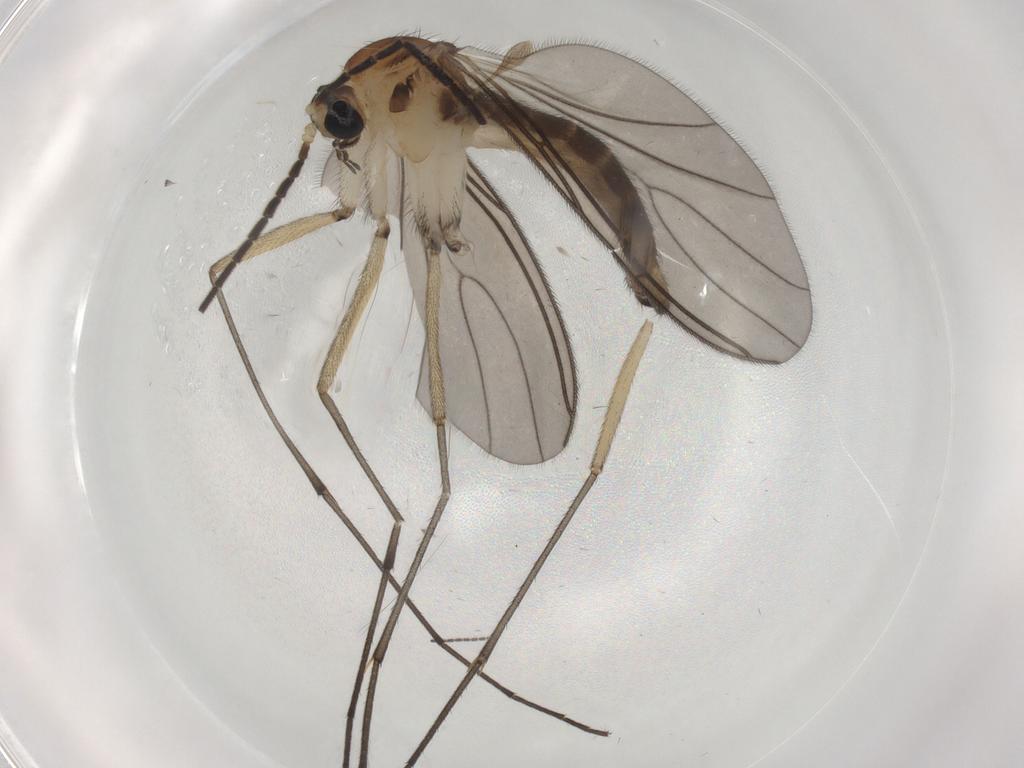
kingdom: Animalia
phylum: Arthropoda
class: Insecta
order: Diptera
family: Sciaridae
